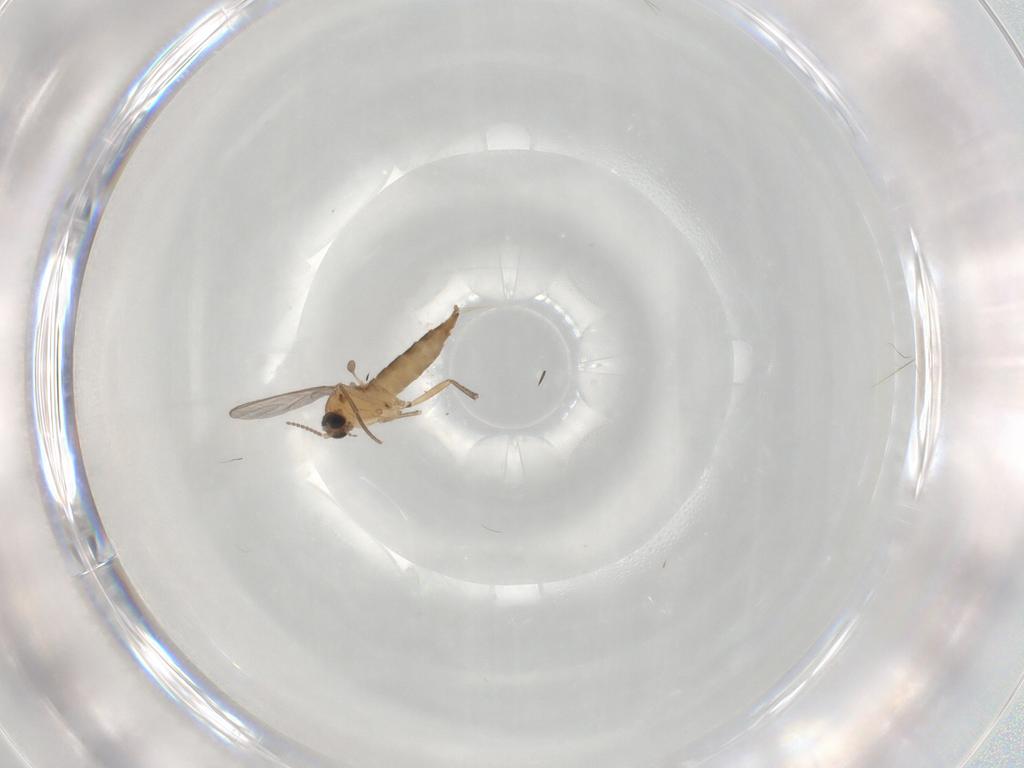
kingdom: Animalia
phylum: Arthropoda
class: Insecta
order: Diptera
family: Sciaridae
